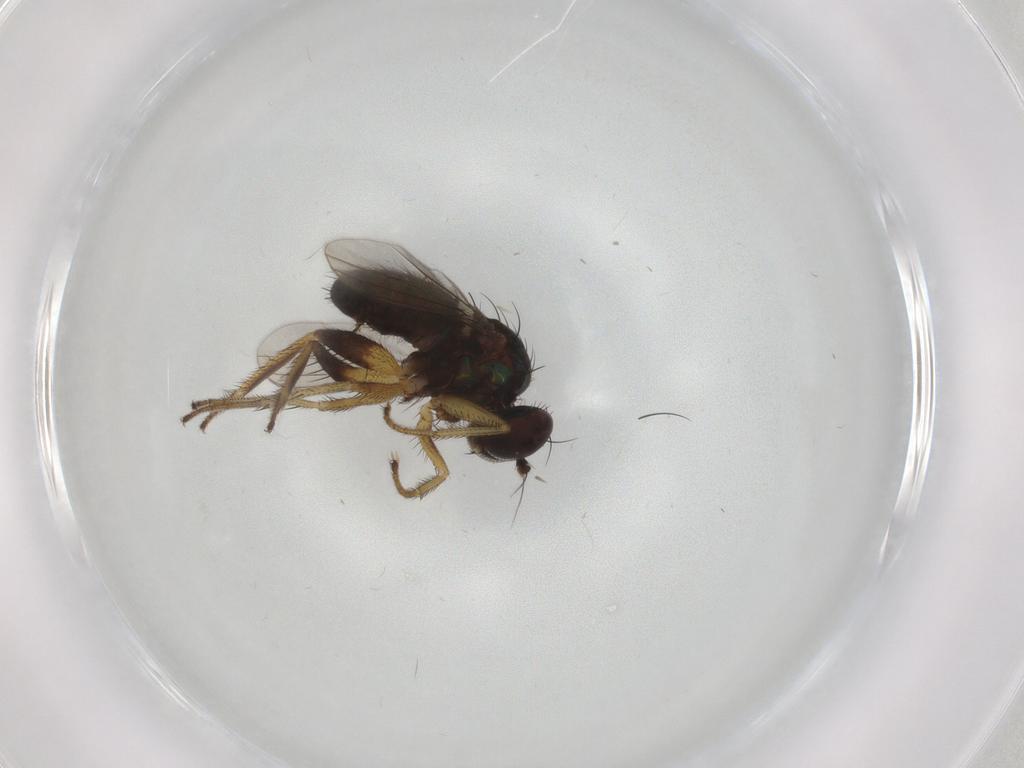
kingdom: Animalia
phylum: Arthropoda
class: Insecta
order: Diptera
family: Dolichopodidae
